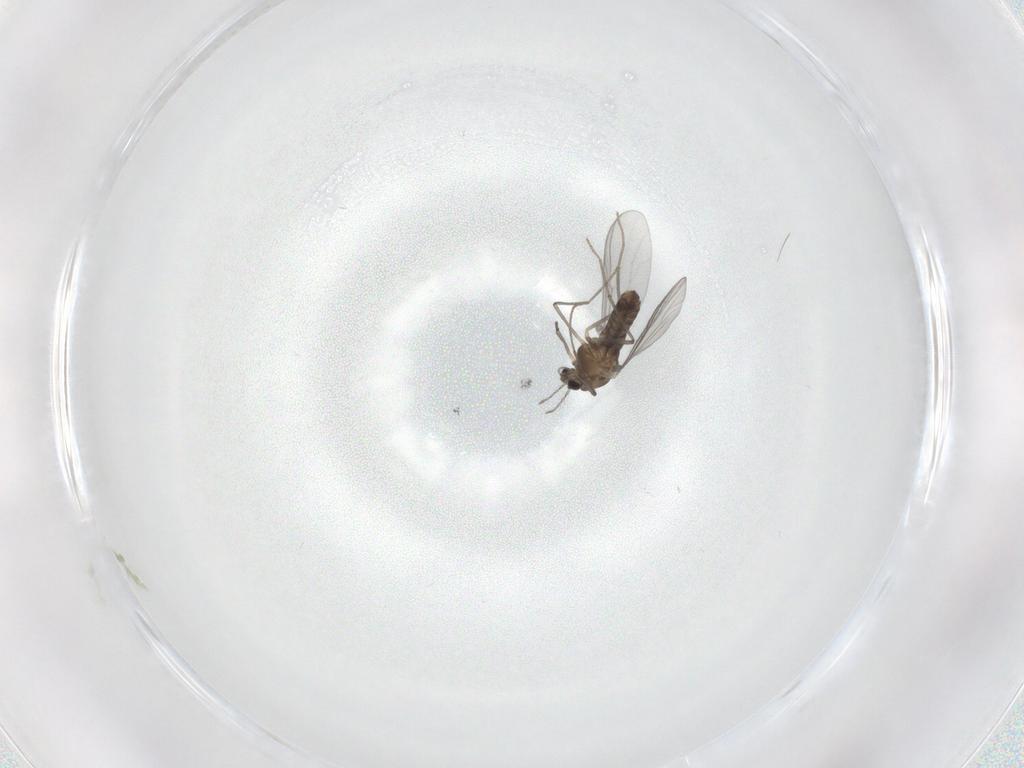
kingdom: Animalia
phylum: Arthropoda
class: Insecta
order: Diptera
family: Chironomidae
